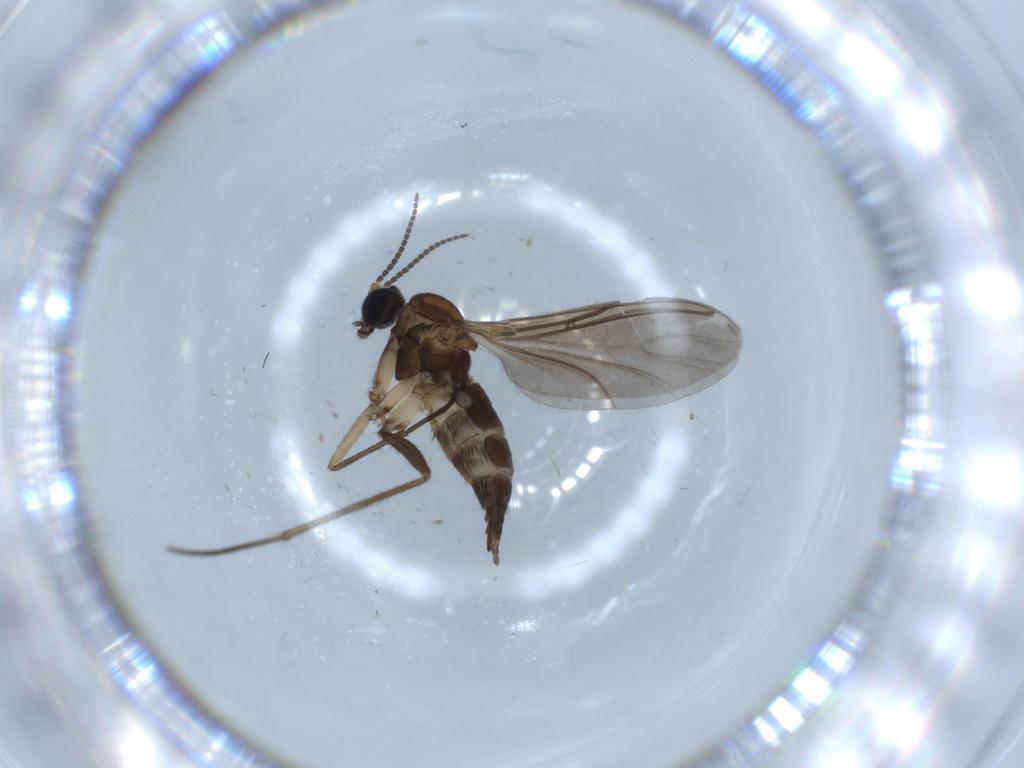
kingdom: Animalia
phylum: Arthropoda
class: Insecta
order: Diptera
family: Sciaridae
